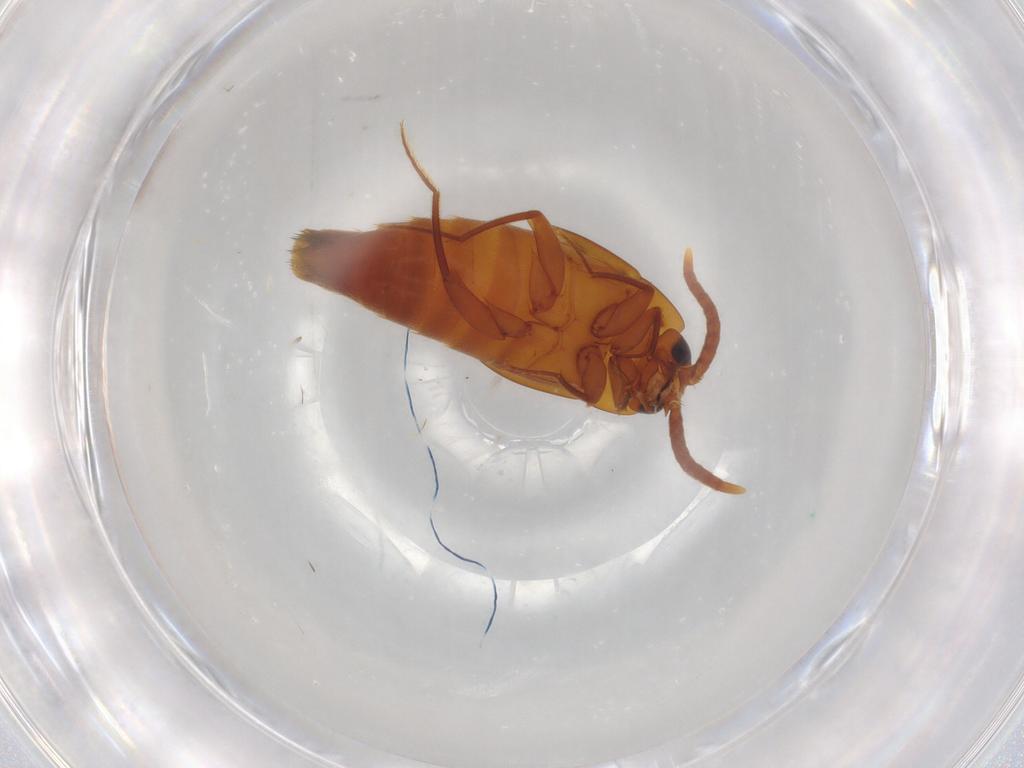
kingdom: Animalia
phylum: Arthropoda
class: Insecta
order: Coleoptera
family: Staphylinidae
